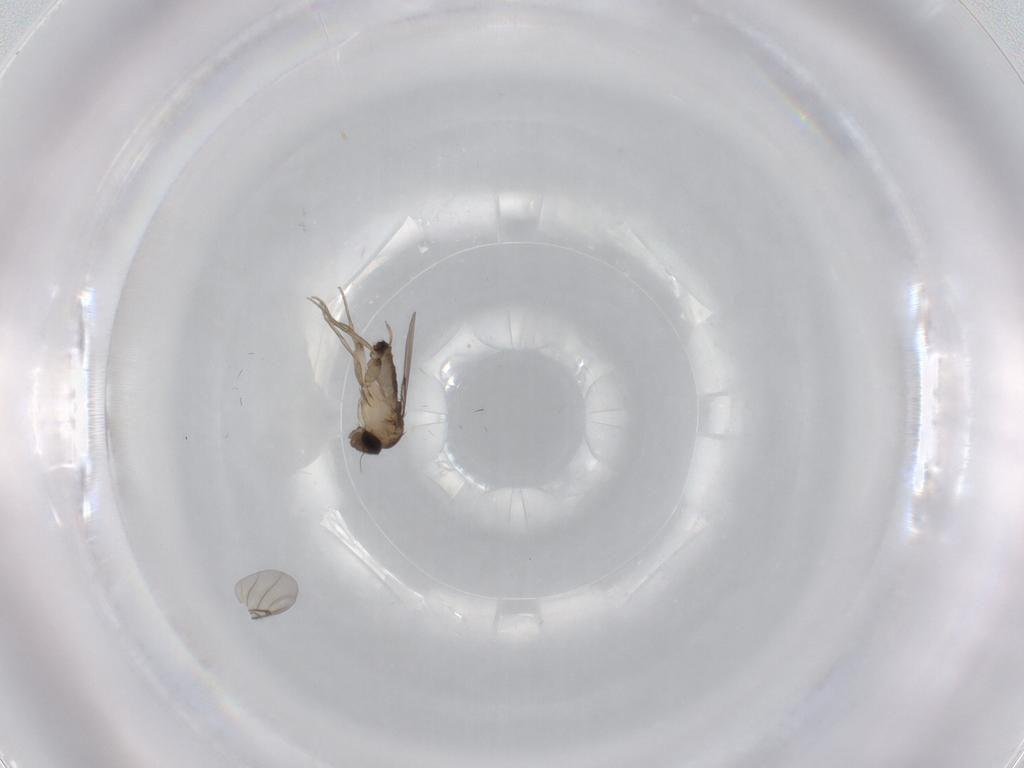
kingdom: Animalia
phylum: Arthropoda
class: Insecta
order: Diptera
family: Phoridae
